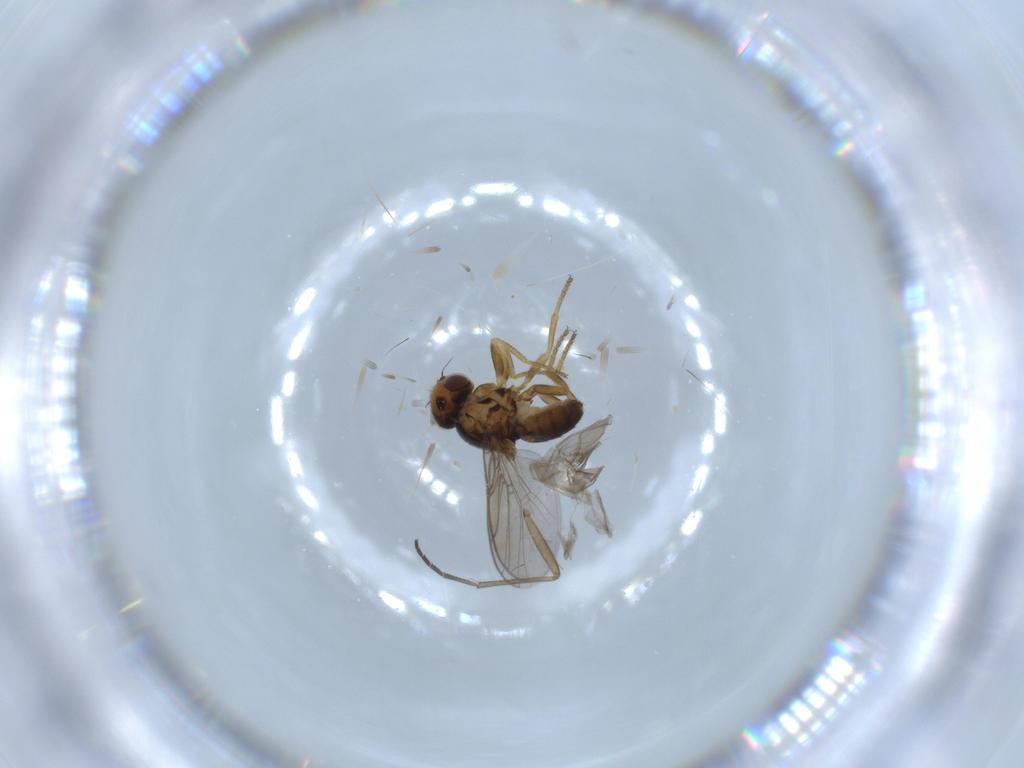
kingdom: Animalia
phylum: Arthropoda
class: Insecta
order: Diptera
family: Chloropidae
